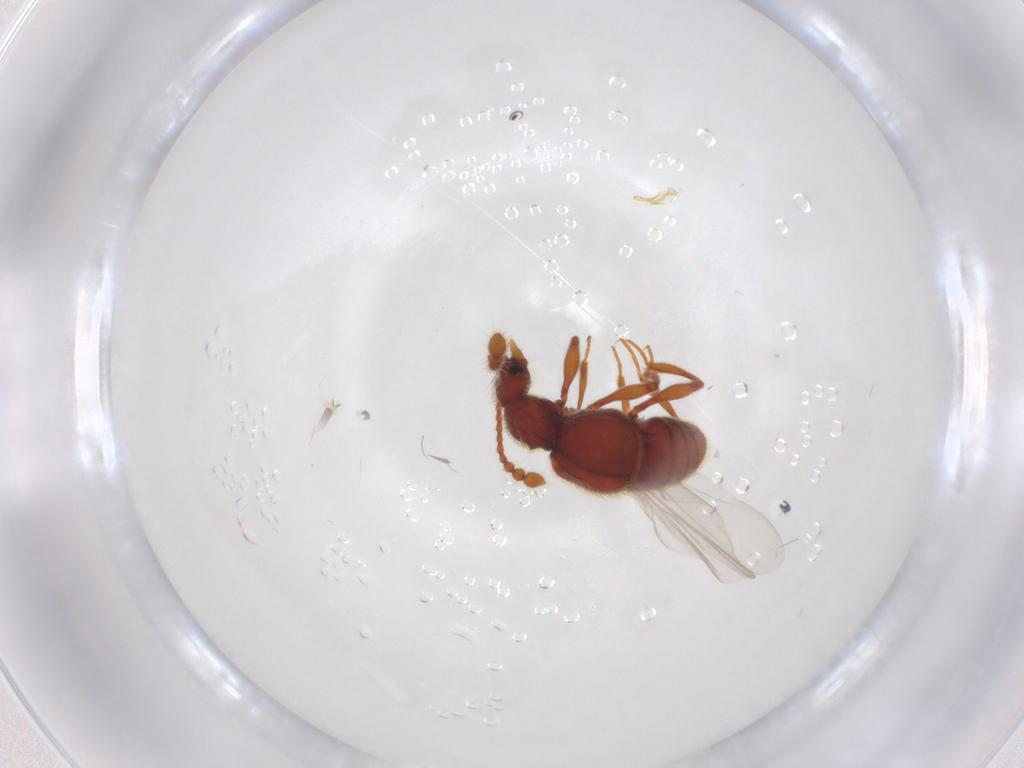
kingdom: Animalia
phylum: Arthropoda
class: Insecta
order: Coleoptera
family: Staphylinidae
